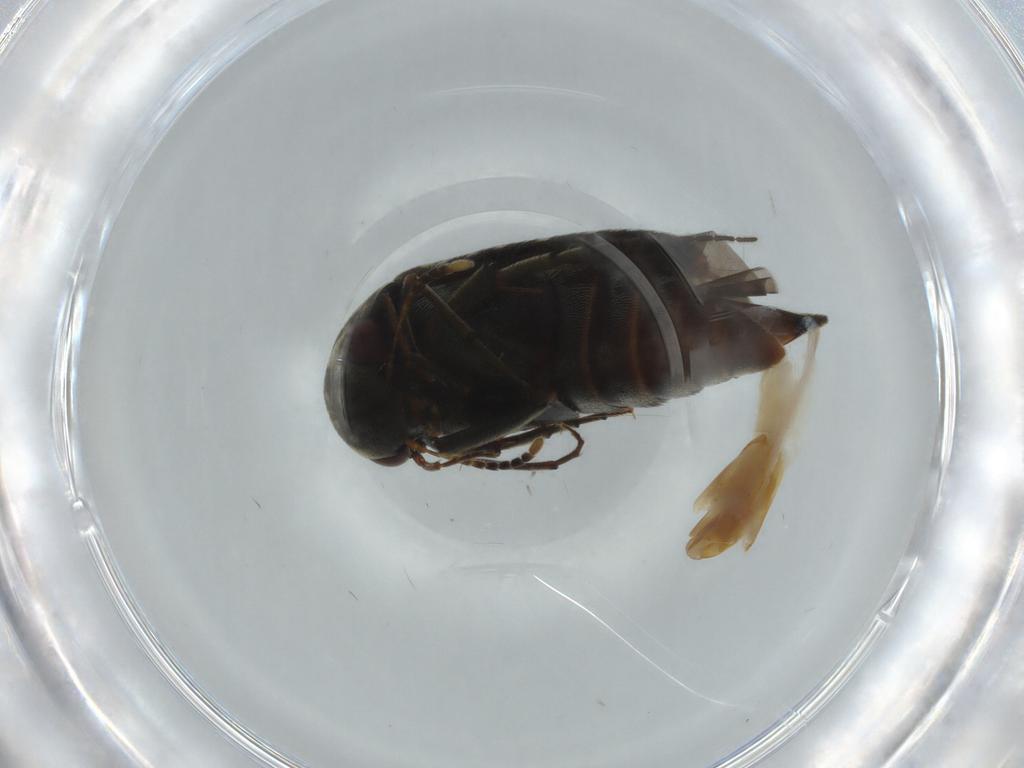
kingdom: Animalia
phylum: Arthropoda
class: Insecta
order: Coleoptera
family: Mordellidae
